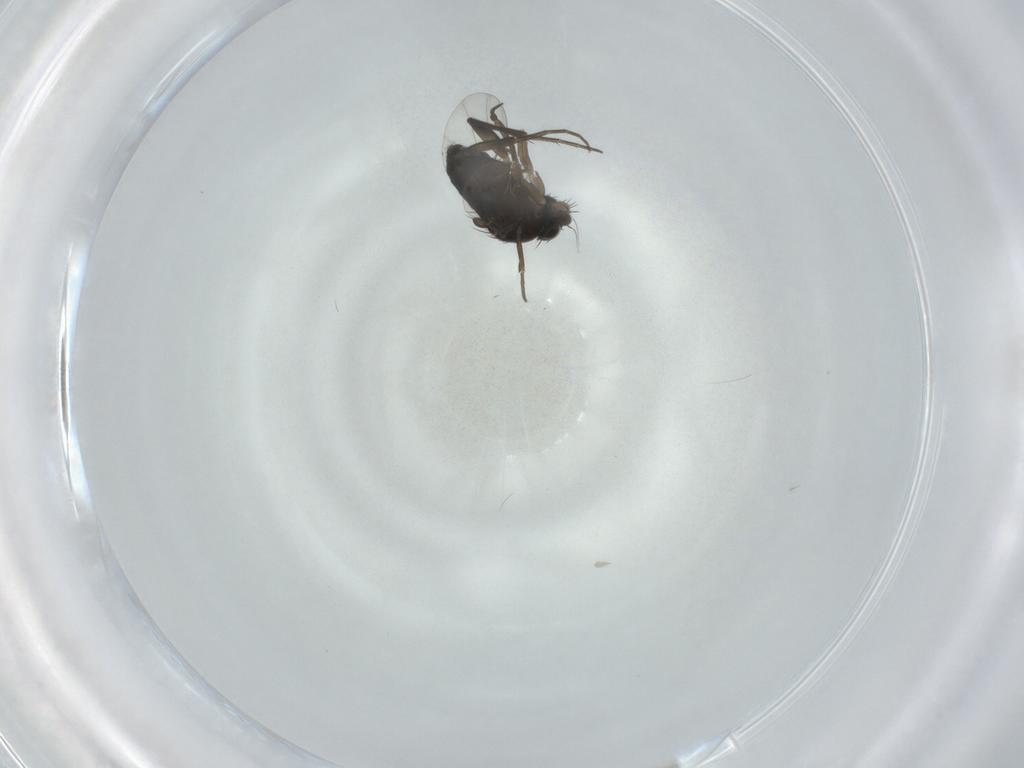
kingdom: Animalia
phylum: Arthropoda
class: Insecta
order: Diptera
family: Phoridae
